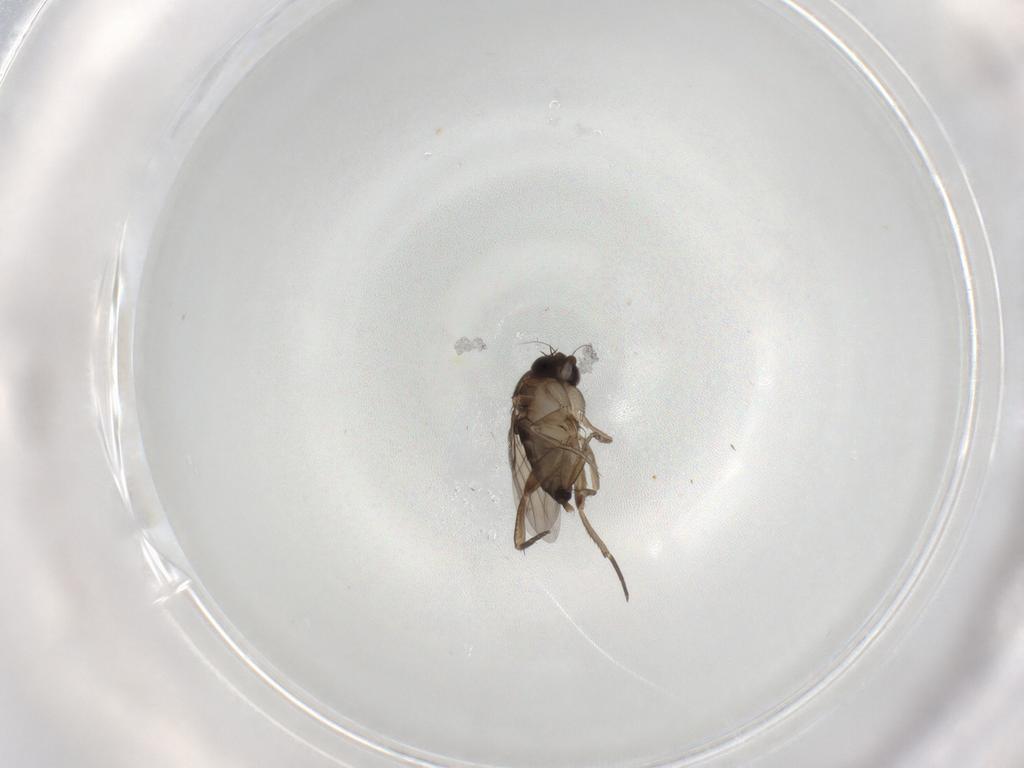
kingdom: Animalia
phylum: Arthropoda
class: Insecta
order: Diptera
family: Phoridae
